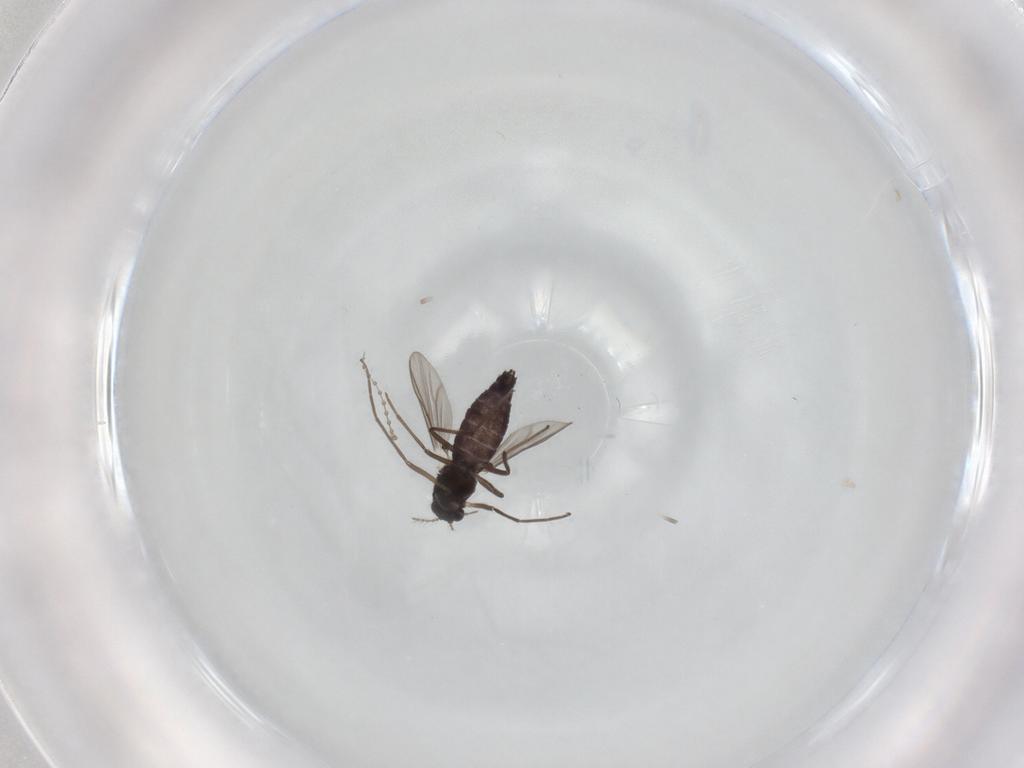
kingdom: Animalia
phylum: Arthropoda
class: Insecta
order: Diptera
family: Chironomidae
